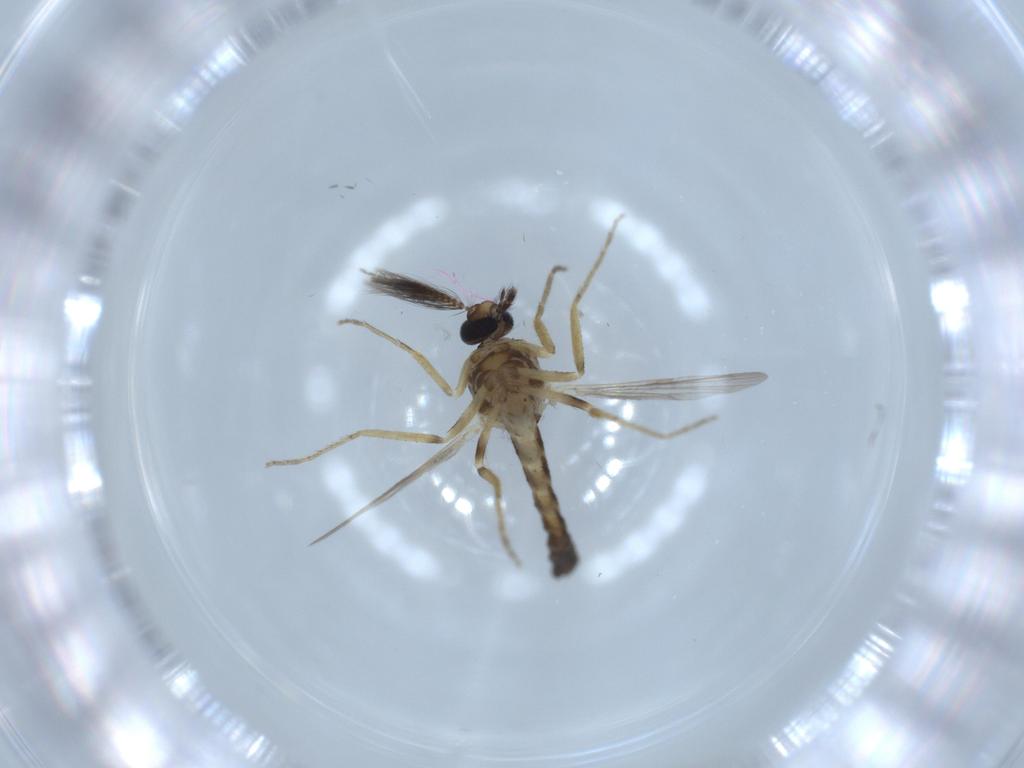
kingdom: Animalia
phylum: Arthropoda
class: Insecta
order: Diptera
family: Ceratopogonidae
